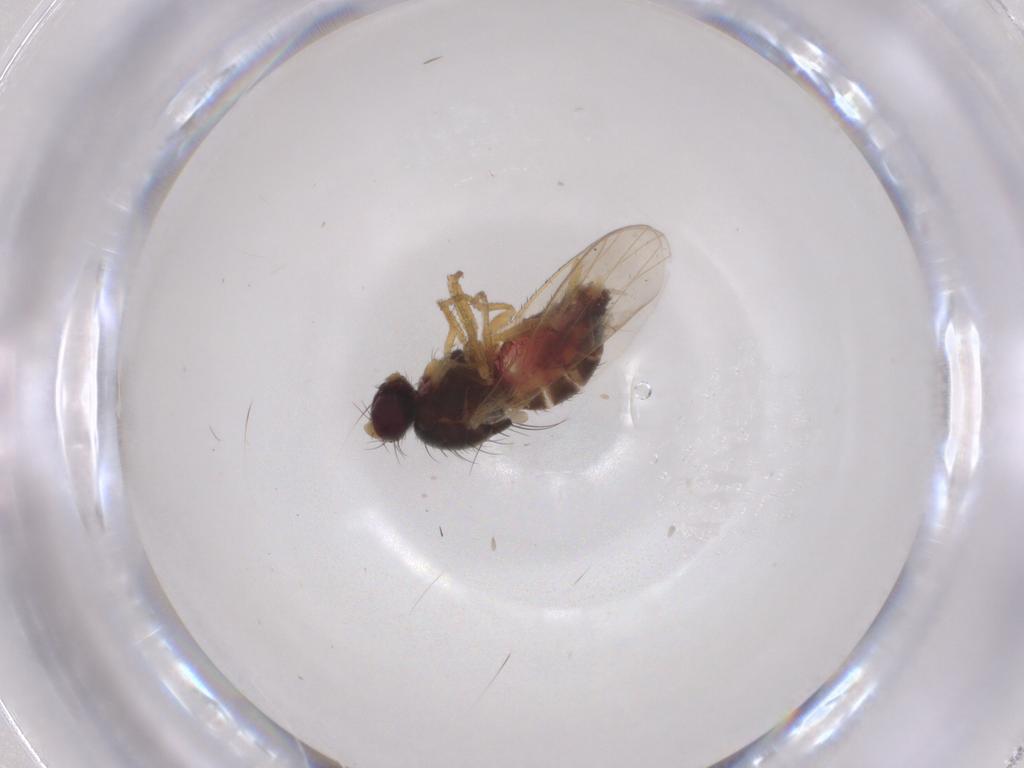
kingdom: Animalia
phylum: Arthropoda
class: Insecta
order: Diptera
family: Heleomyzidae
